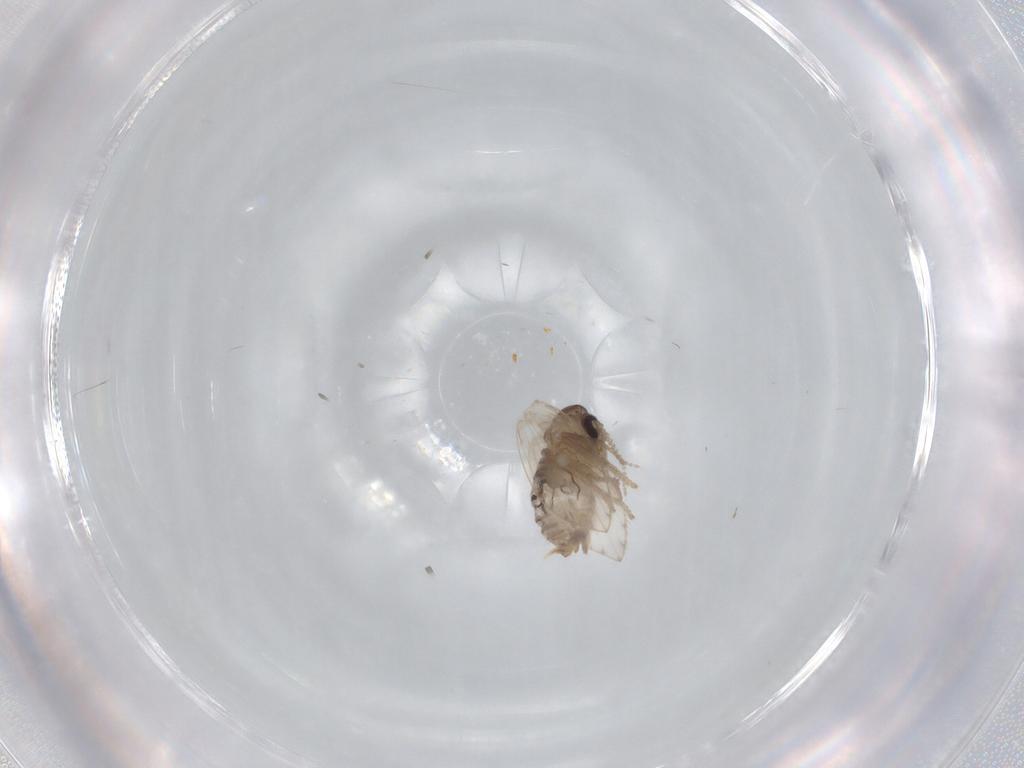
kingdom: Animalia
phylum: Arthropoda
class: Insecta
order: Diptera
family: Psychodidae
